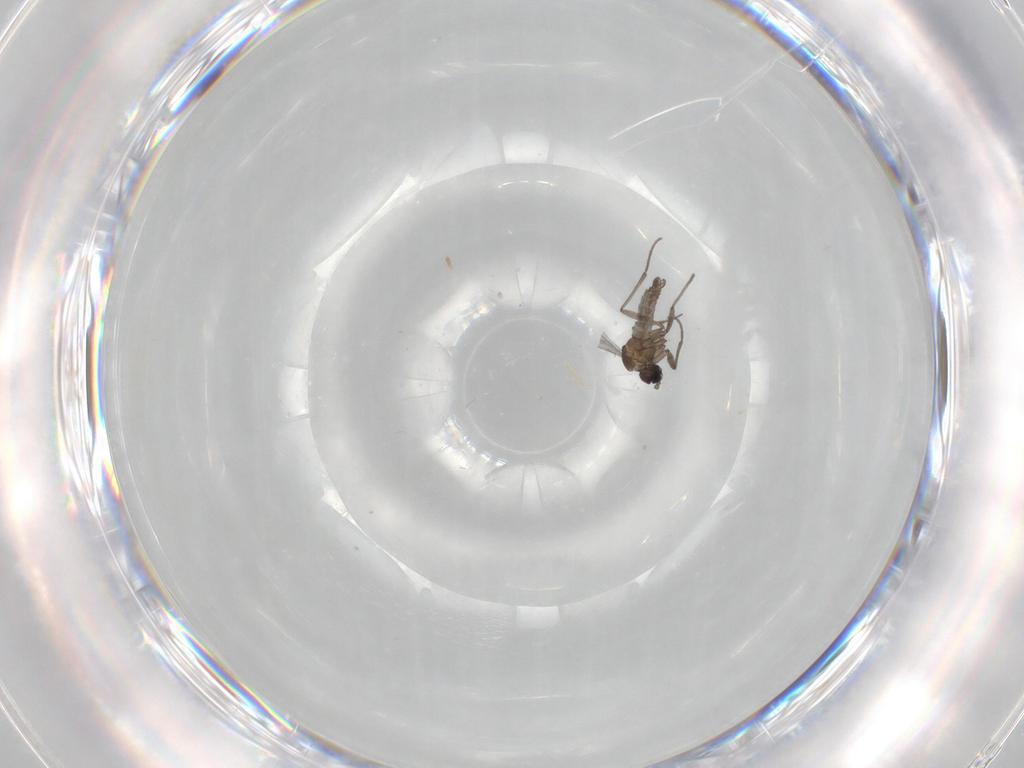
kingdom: Animalia
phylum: Arthropoda
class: Insecta
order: Diptera
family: Sciaridae
